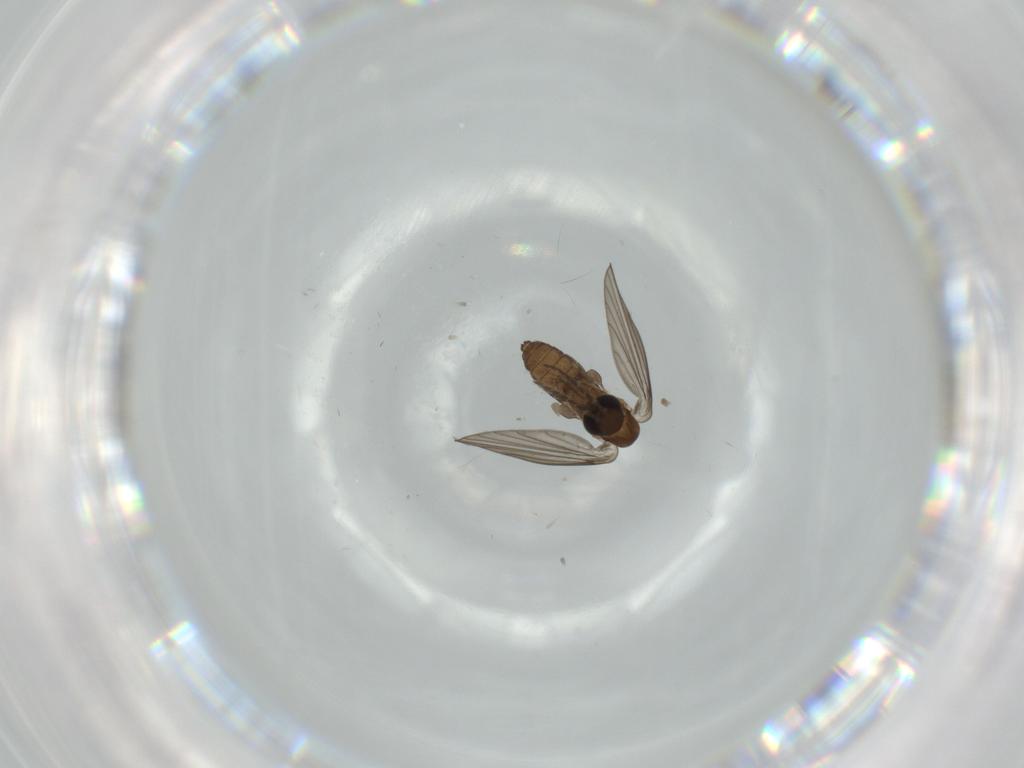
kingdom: Animalia
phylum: Arthropoda
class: Insecta
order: Diptera
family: Psychodidae
